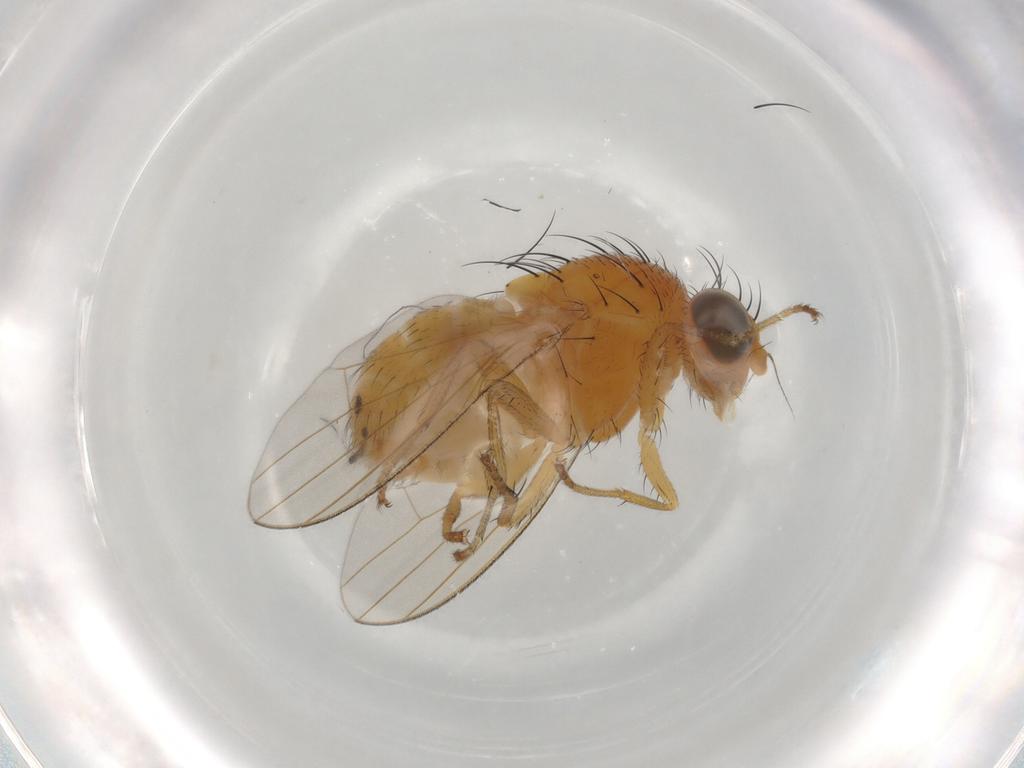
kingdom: Animalia
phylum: Arthropoda
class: Insecta
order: Diptera
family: Lauxaniidae
